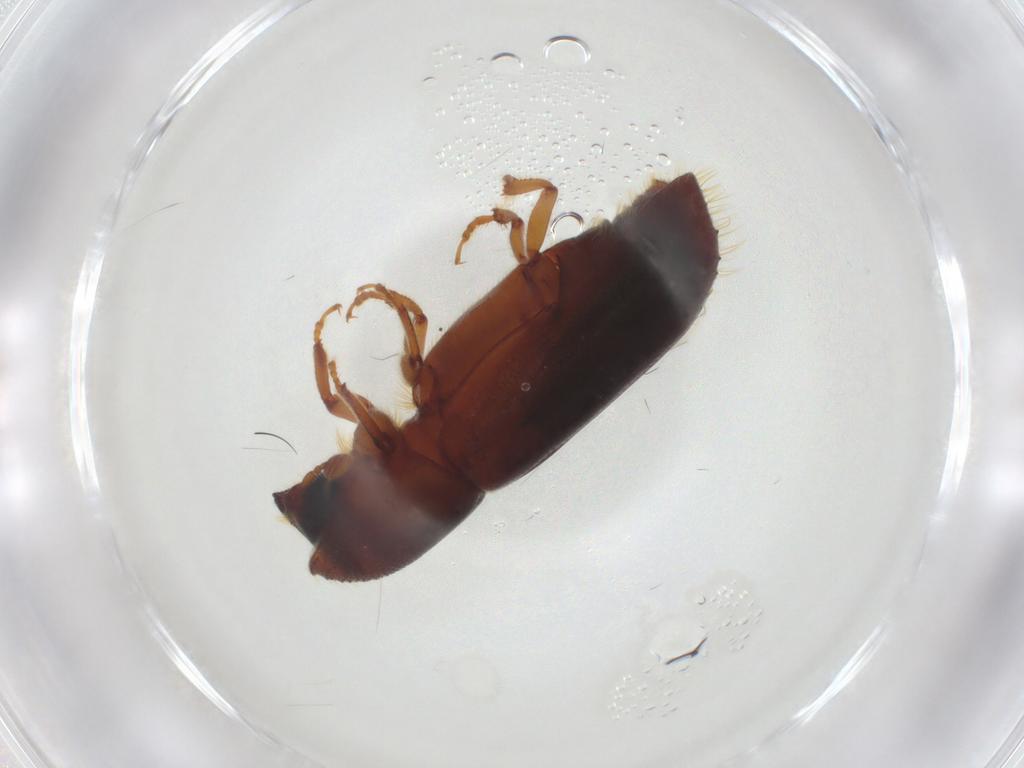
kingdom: Animalia
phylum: Arthropoda
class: Insecta
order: Coleoptera
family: Curculionidae
